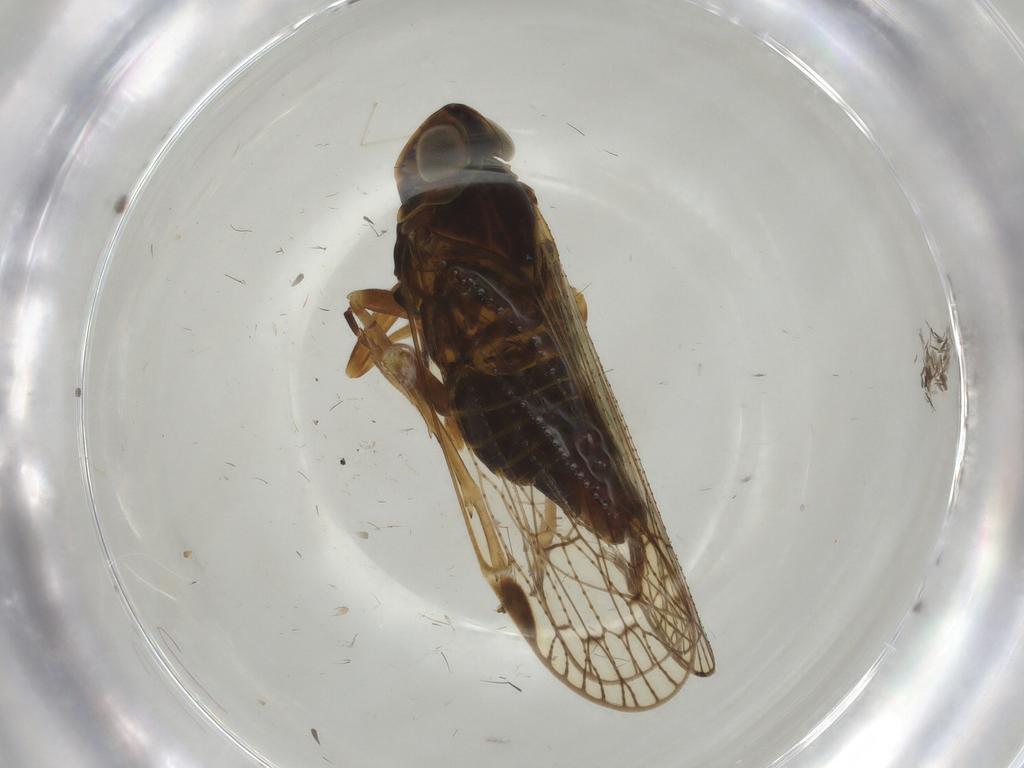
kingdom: Animalia
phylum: Arthropoda
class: Insecta
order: Hemiptera
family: Cixiidae
